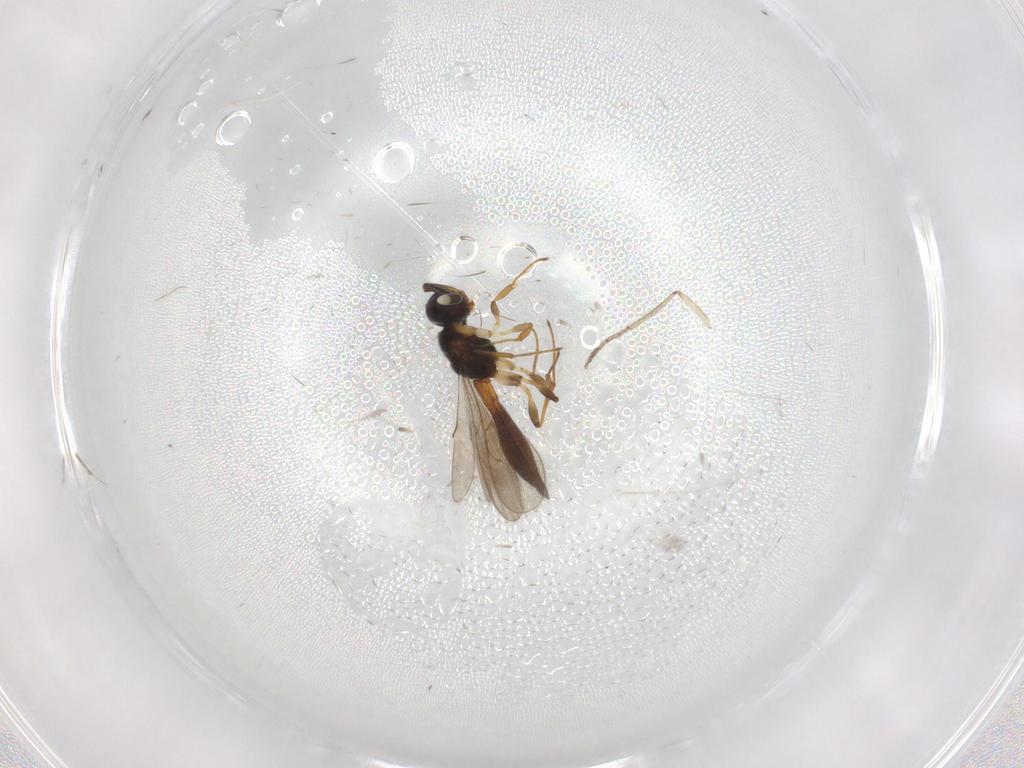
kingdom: Animalia
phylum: Arthropoda
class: Insecta
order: Hymenoptera
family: Scelionidae
